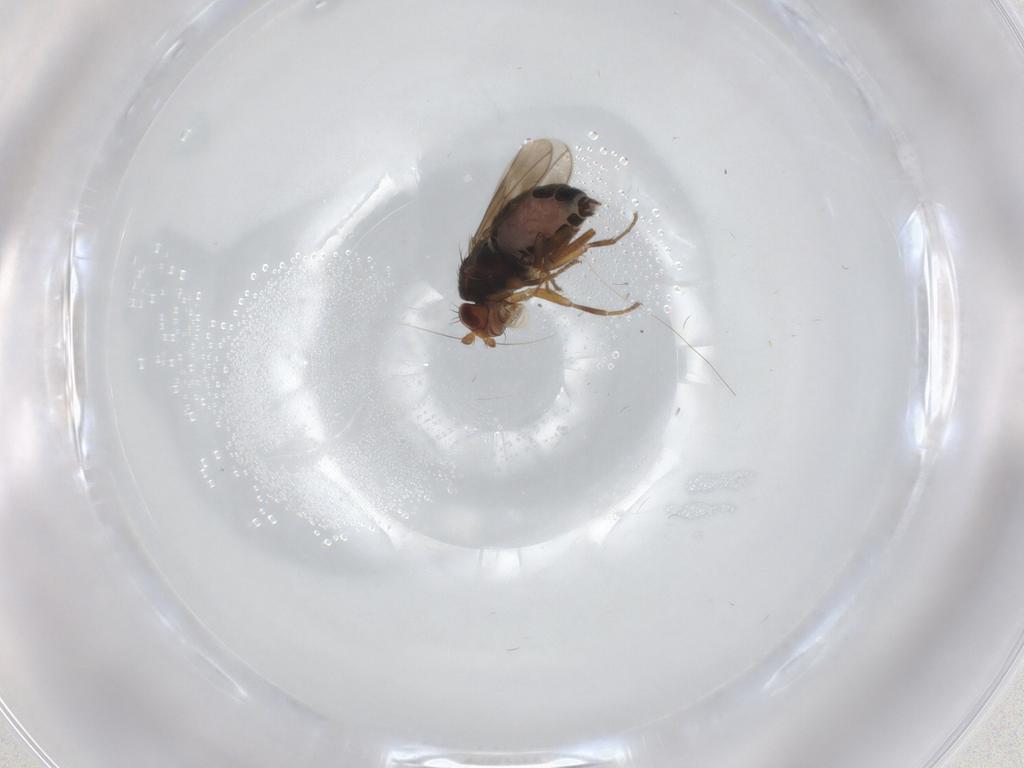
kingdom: Animalia
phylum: Arthropoda
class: Insecta
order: Diptera
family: Sphaeroceridae
